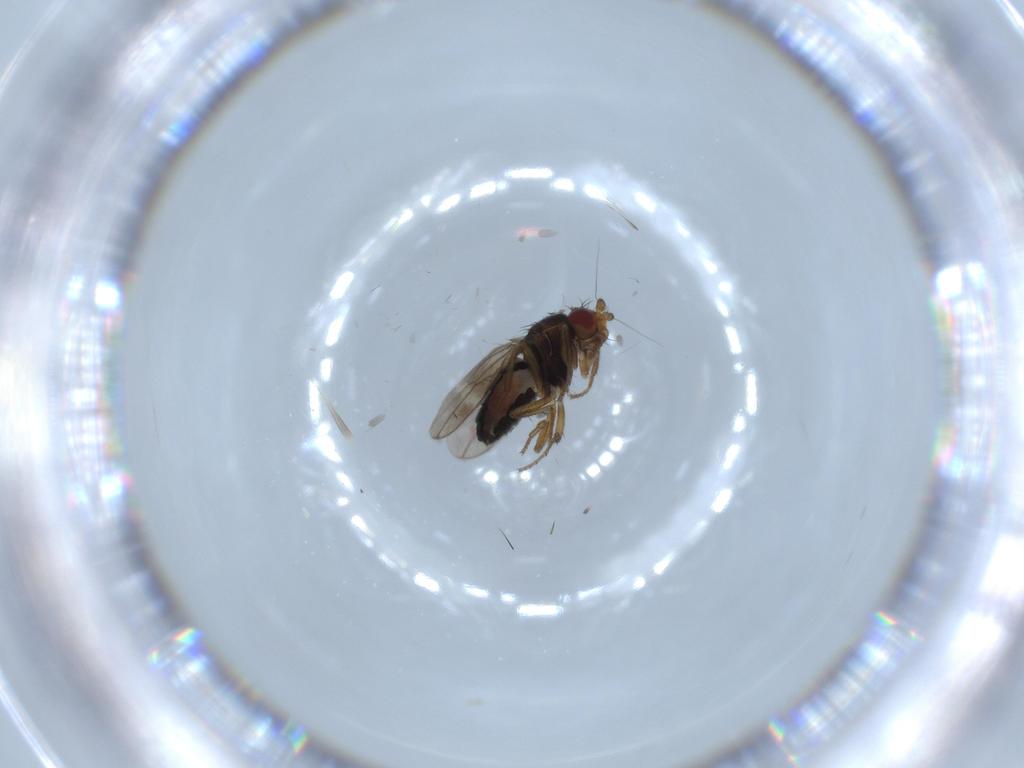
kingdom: Animalia
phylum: Arthropoda
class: Insecta
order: Diptera
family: Sphaeroceridae
